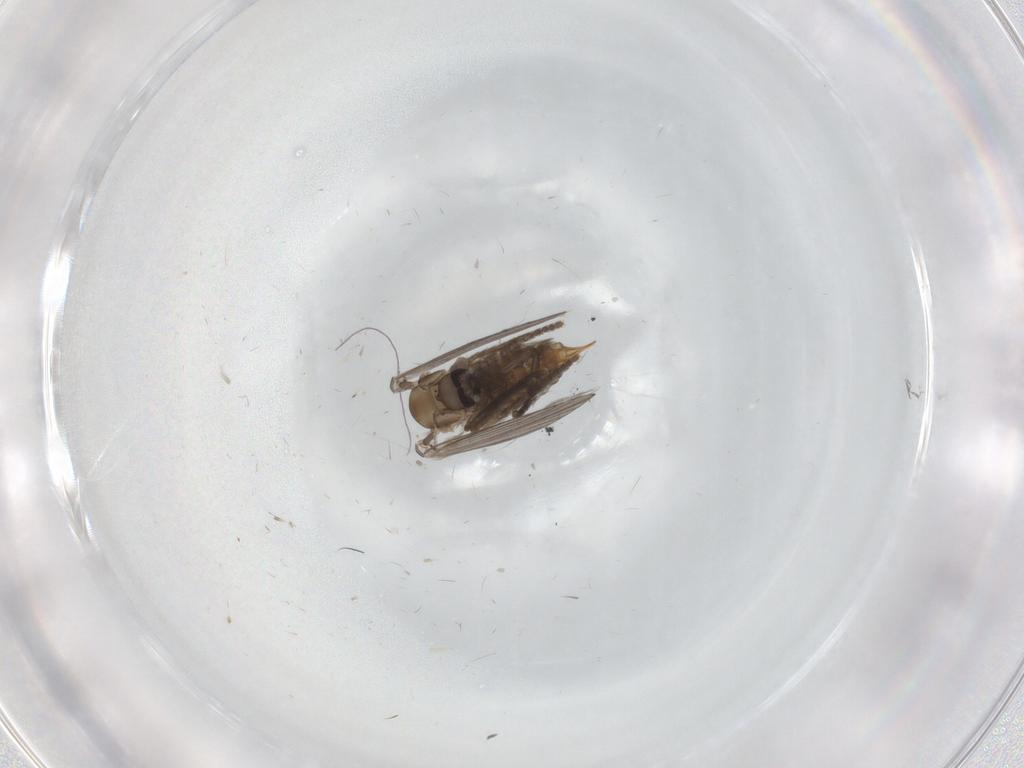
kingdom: Animalia
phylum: Arthropoda
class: Insecta
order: Diptera
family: Psychodidae
